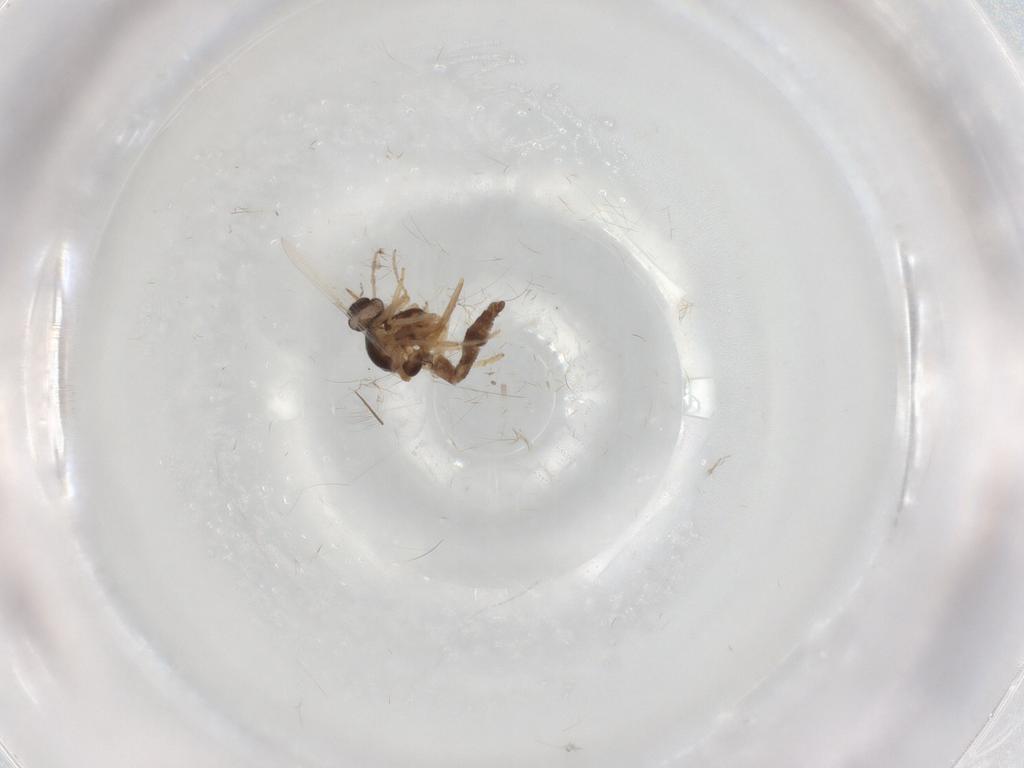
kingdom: Animalia
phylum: Arthropoda
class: Insecta
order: Diptera
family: Ceratopogonidae
